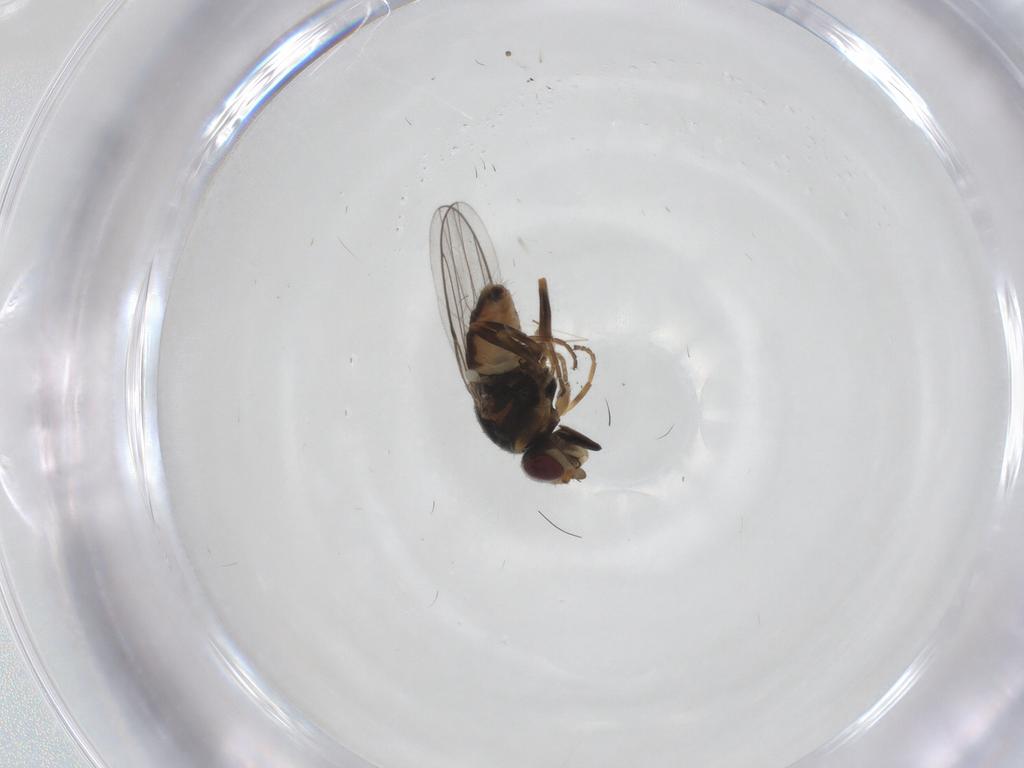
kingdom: Animalia
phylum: Arthropoda
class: Insecta
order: Diptera
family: Chloropidae
